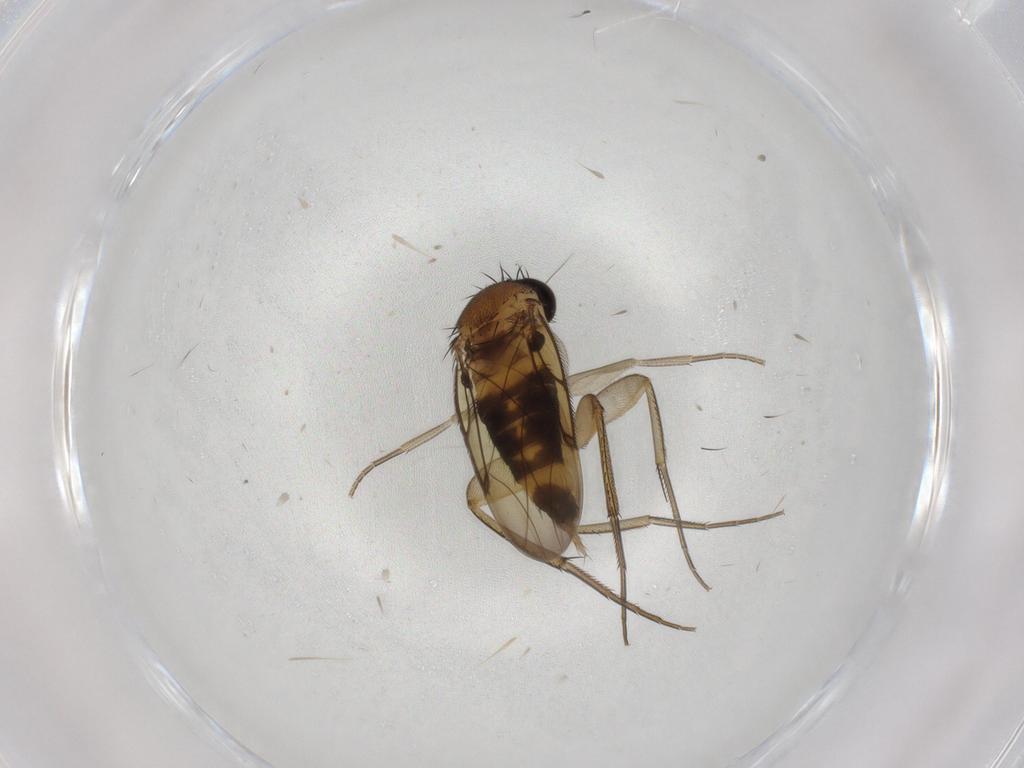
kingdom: Animalia
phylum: Arthropoda
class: Insecta
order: Diptera
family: Phoridae
